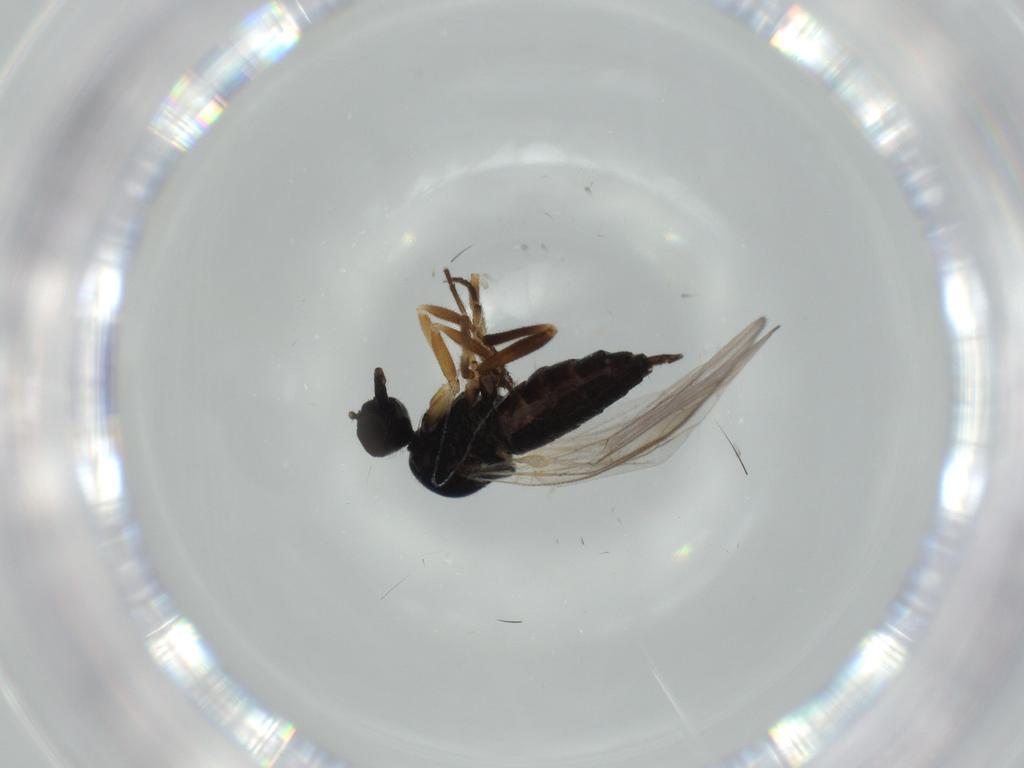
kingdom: Animalia
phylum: Arthropoda
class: Insecta
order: Diptera
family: Hybotidae
